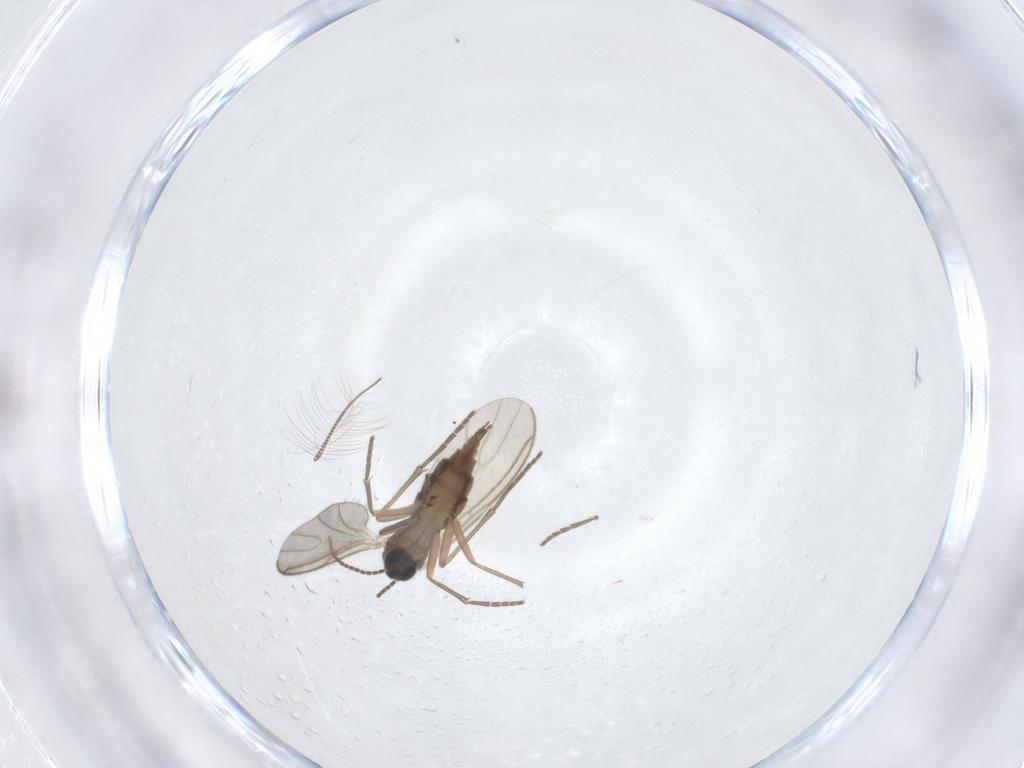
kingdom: Animalia
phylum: Arthropoda
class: Insecta
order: Diptera
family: Sciaridae
